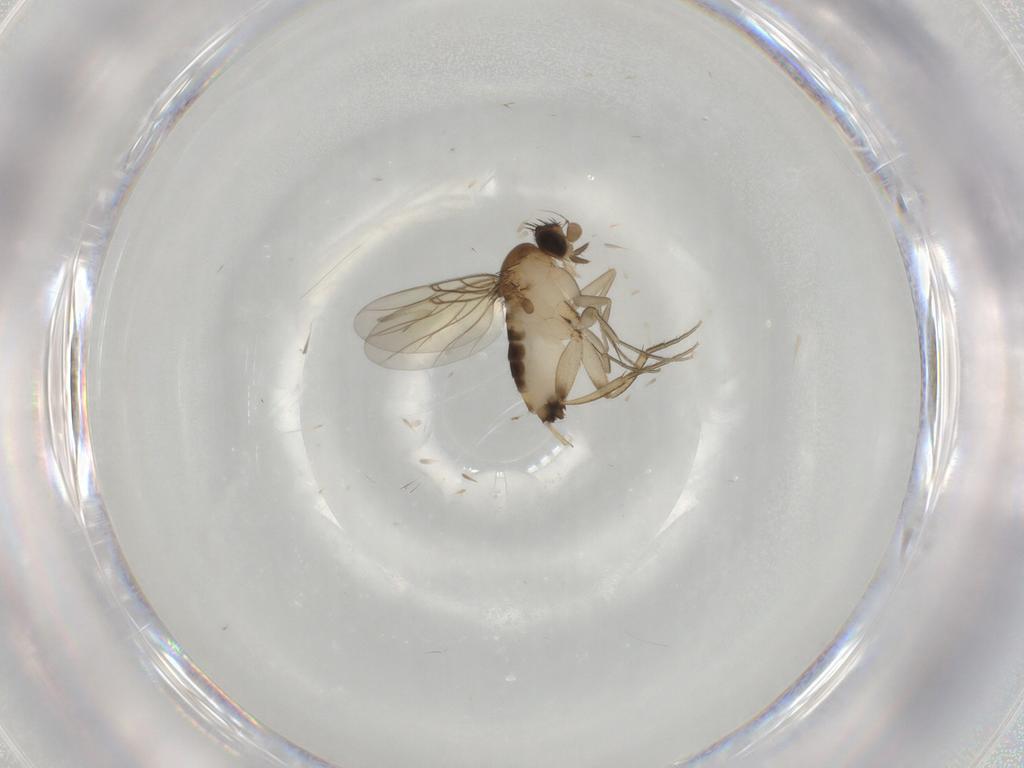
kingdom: Animalia
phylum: Arthropoda
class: Insecta
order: Diptera
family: Phoridae
